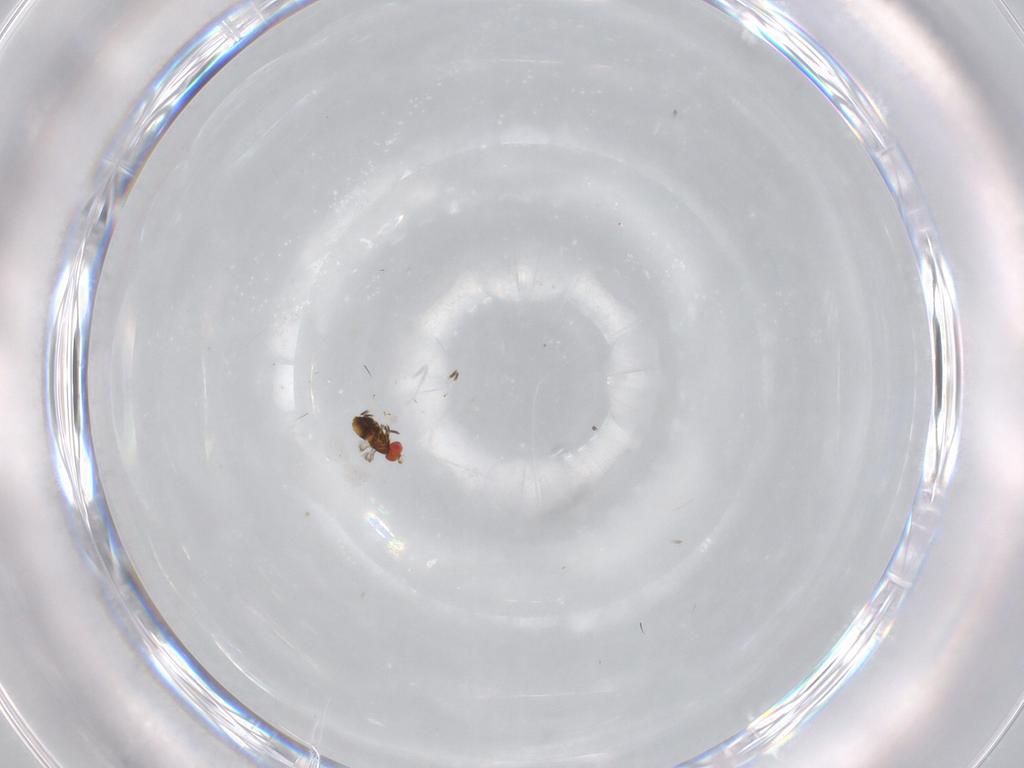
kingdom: Animalia
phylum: Arthropoda
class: Insecta
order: Hymenoptera
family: Trichogrammatidae
